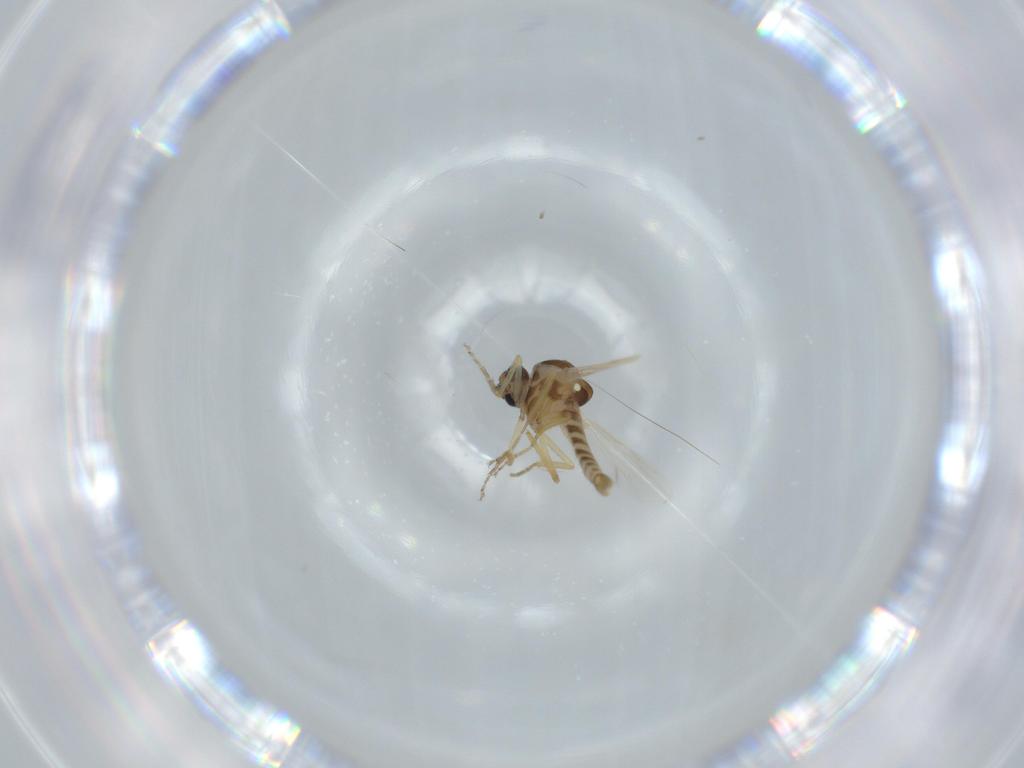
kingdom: Animalia
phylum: Arthropoda
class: Insecta
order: Diptera
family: Ceratopogonidae
